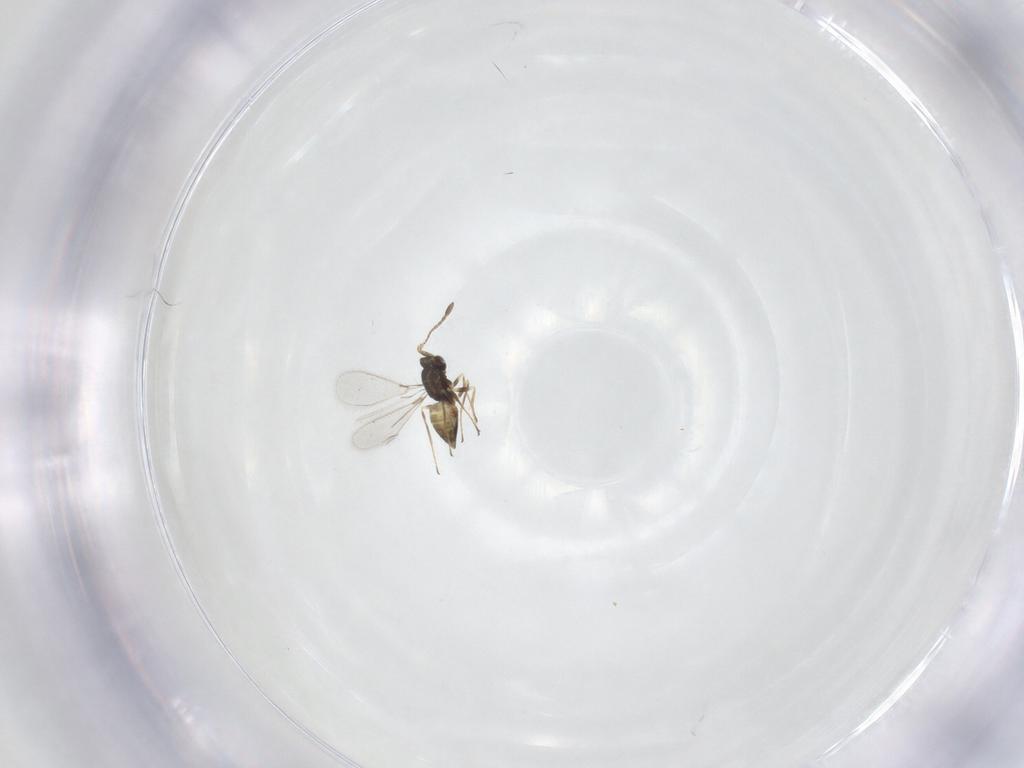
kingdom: Animalia
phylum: Arthropoda
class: Insecta
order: Hymenoptera
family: Mymaridae
